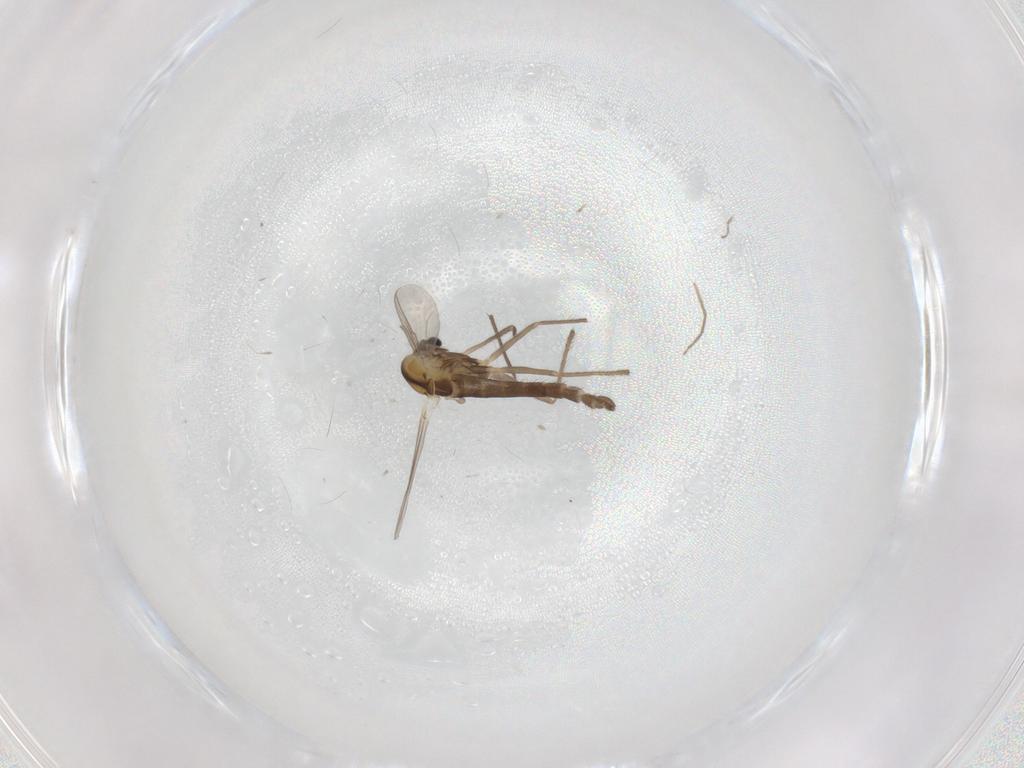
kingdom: Animalia
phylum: Arthropoda
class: Insecta
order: Diptera
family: Chironomidae
